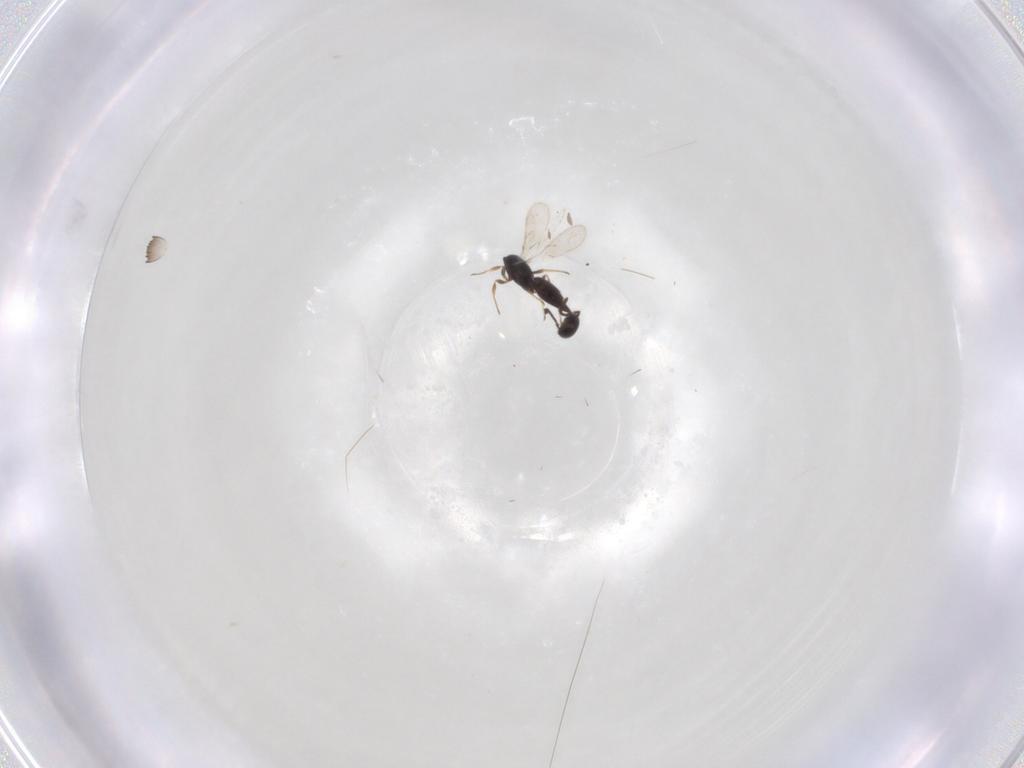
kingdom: Animalia
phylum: Arthropoda
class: Insecta
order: Hymenoptera
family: Scelionidae
